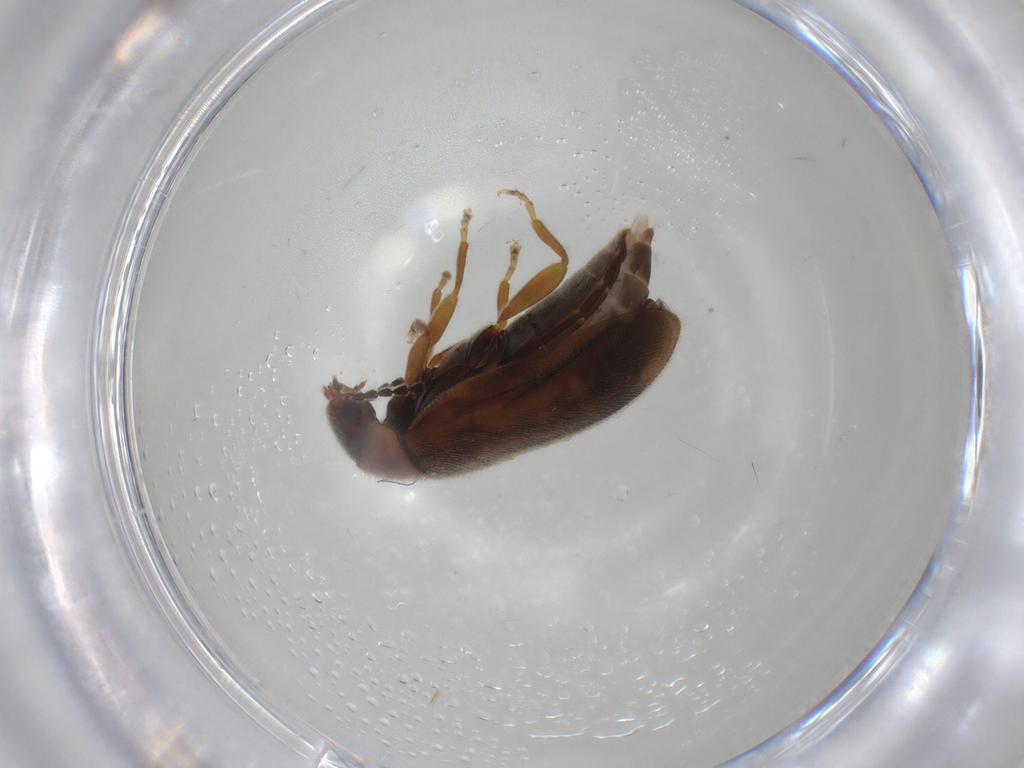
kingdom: Animalia
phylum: Arthropoda
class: Insecta
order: Coleoptera
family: Scirtidae
